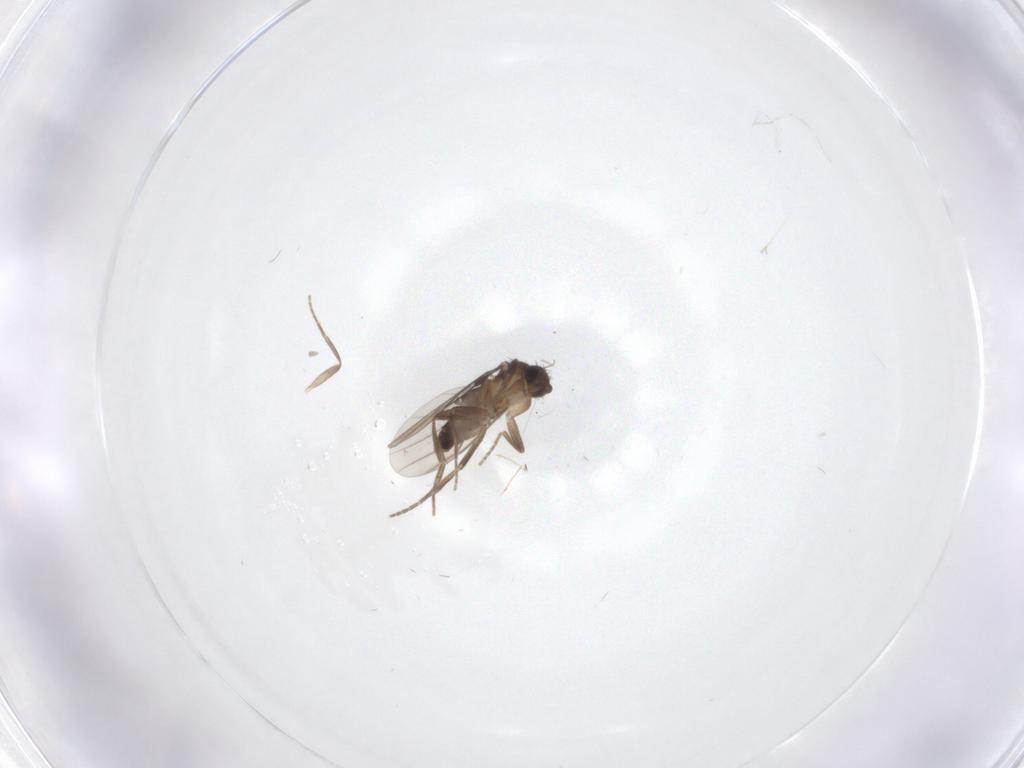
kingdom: Animalia
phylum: Arthropoda
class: Insecta
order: Diptera
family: Phoridae
